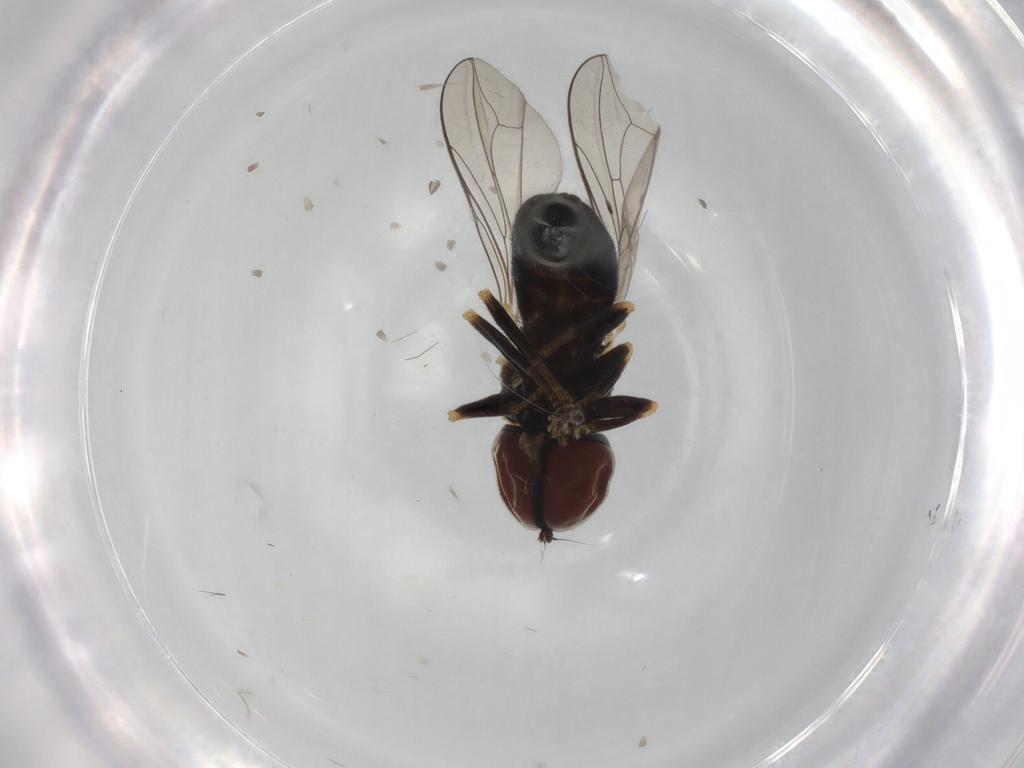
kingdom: Animalia
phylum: Arthropoda
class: Insecta
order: Diptera
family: Pipunculidae
